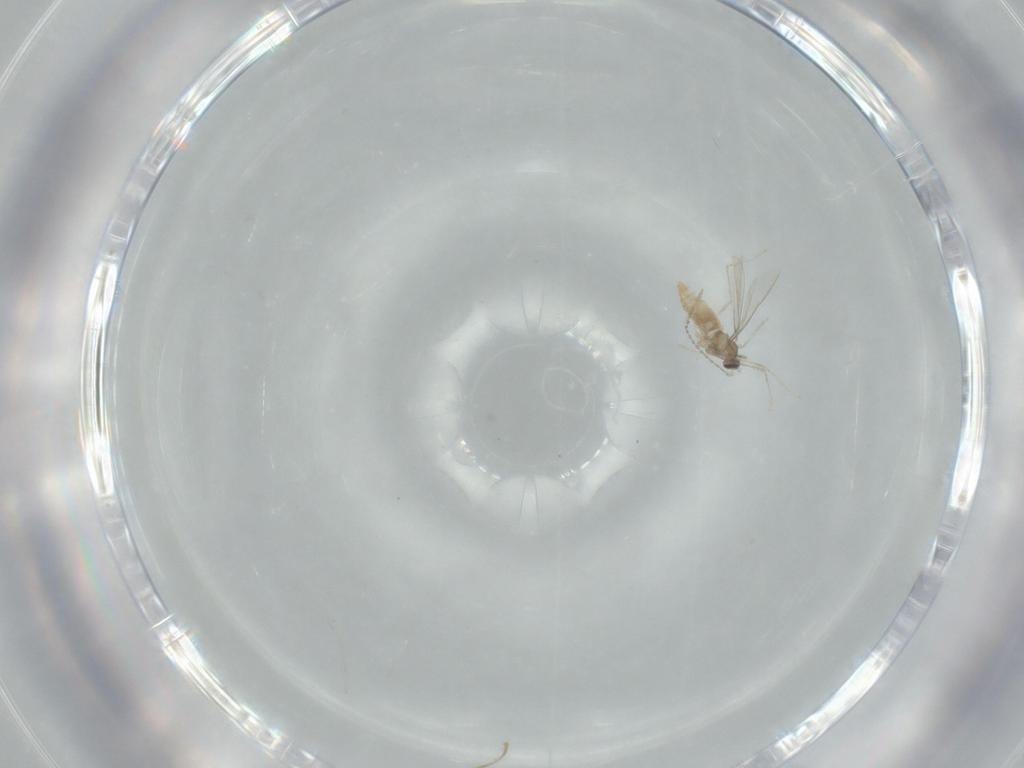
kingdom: Animalia
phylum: Arthropoda
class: Insecta
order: Diptera
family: Cecidomyiidae
